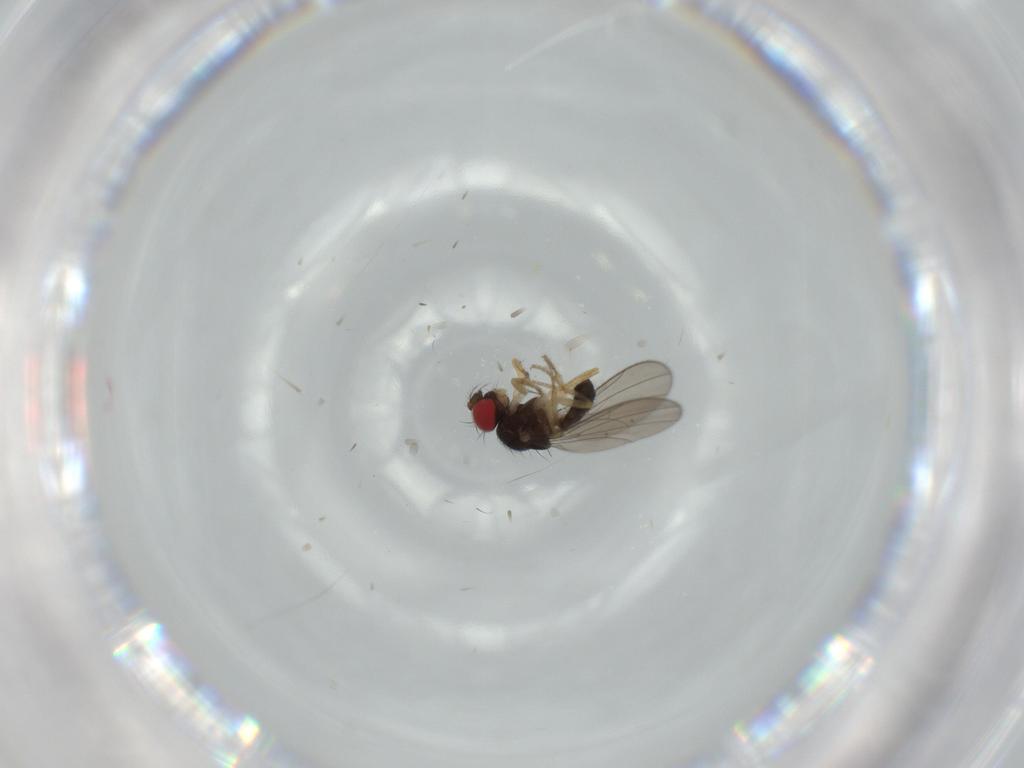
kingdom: Animalia
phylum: Arthropoda
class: Insecta
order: Diptera
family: Drosophilidae
